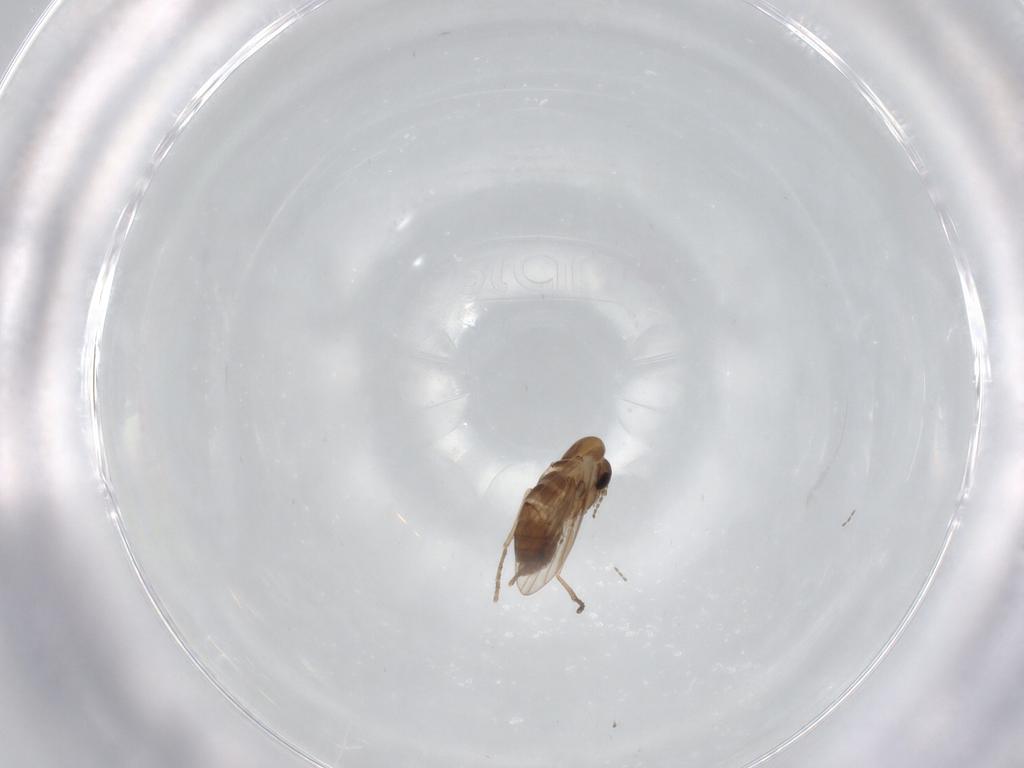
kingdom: Animalia
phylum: Arthropoda
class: Insecta
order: Diptera
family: Psychodidae
